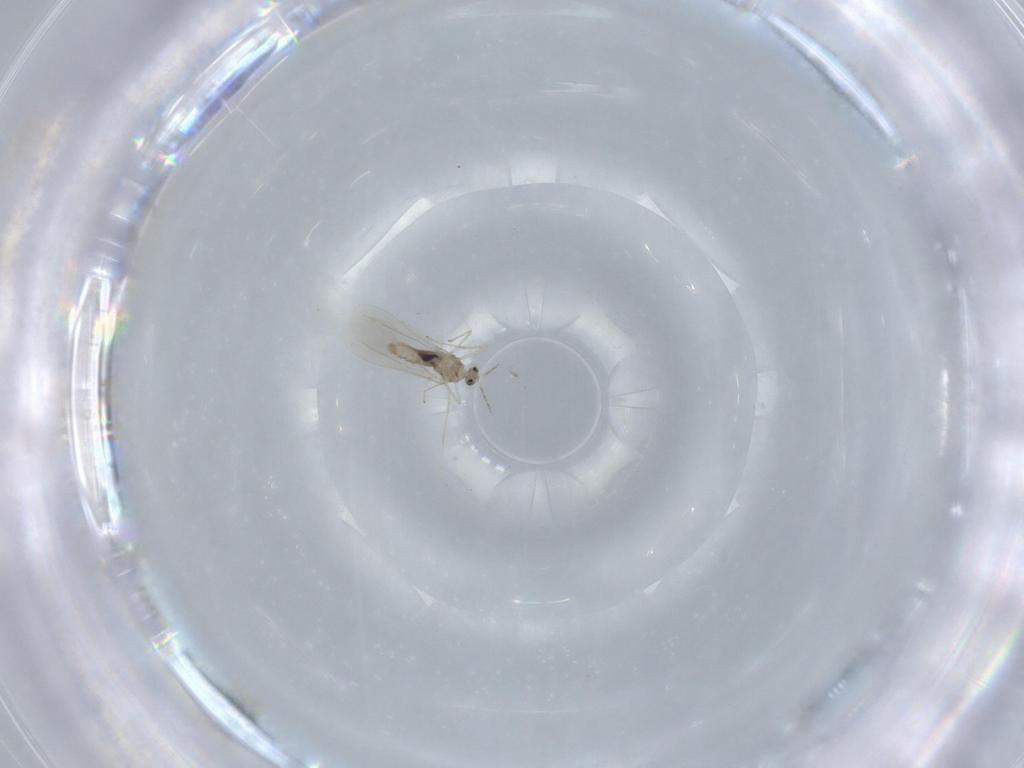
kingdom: Animalia
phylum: Arthropoda
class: Insecta
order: Diptera
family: Cecidomyiidae
